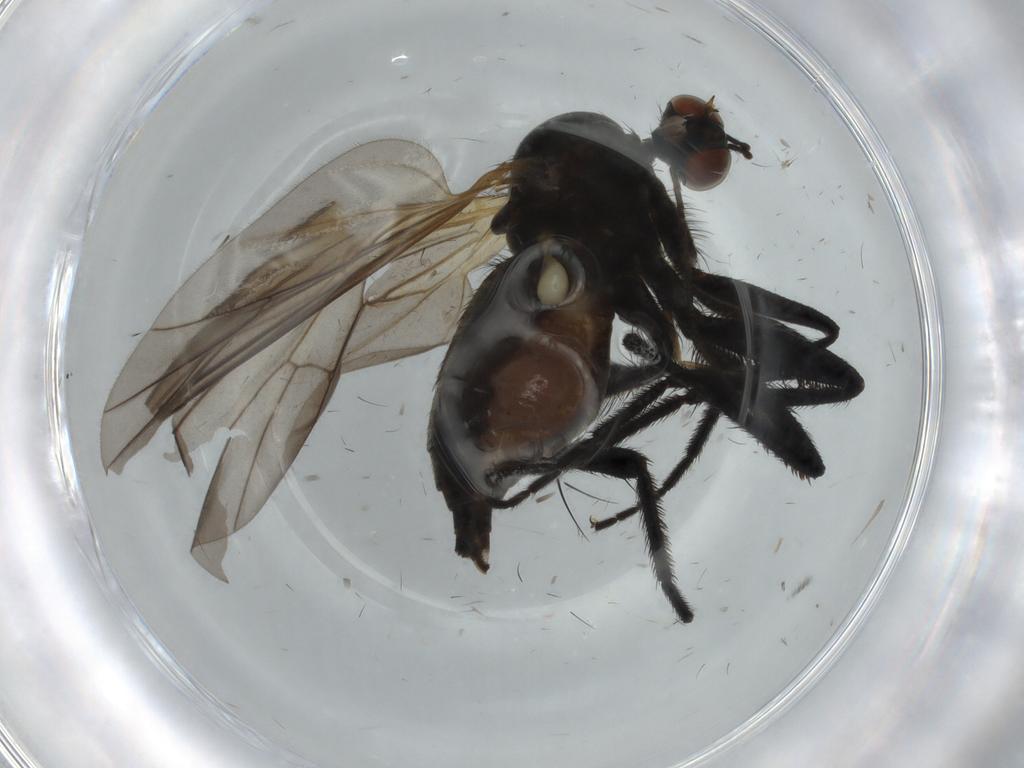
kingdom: Animalia
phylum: Arthropoda
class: Insecta
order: Diptera
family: Empididae
